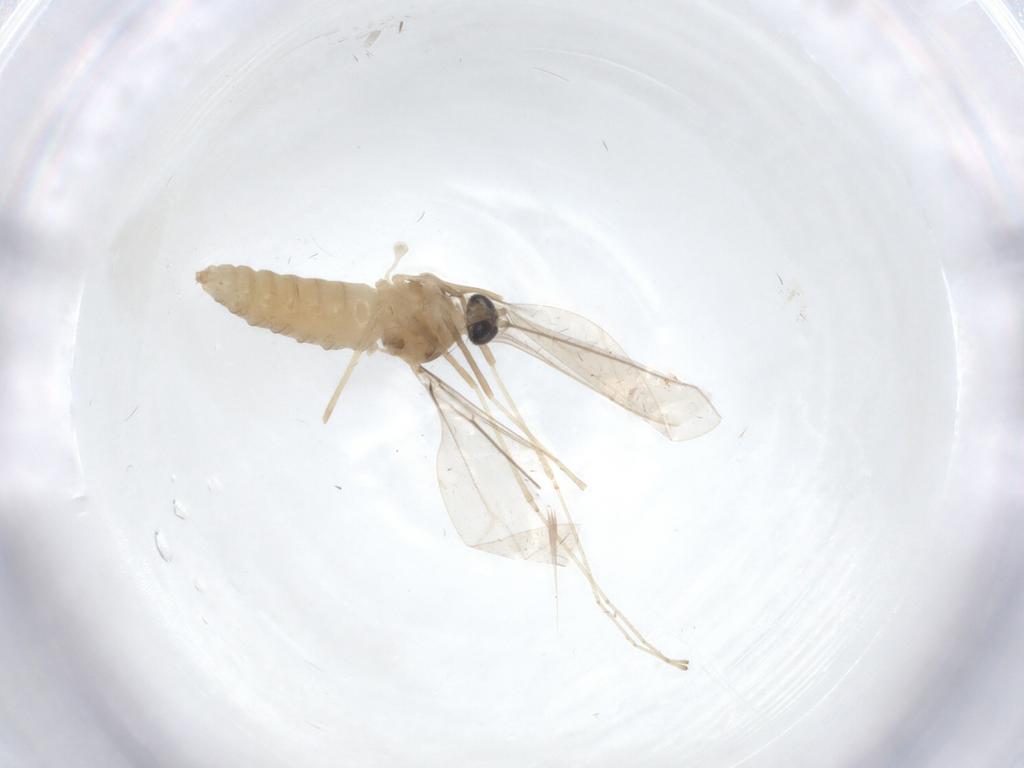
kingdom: Animalia
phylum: Arthropoda
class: Insecta
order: Diptera
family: Cecidomyiidae
